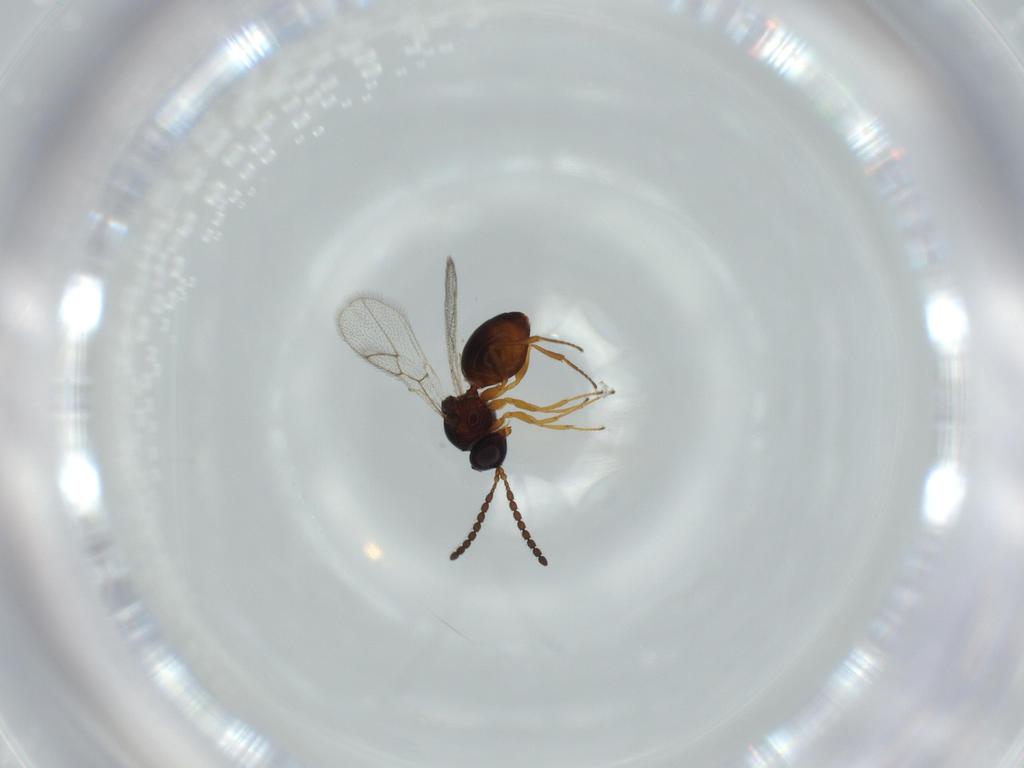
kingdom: Animalia
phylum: Arthropoda
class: Insecta
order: Hymenoptera
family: Figitidae
